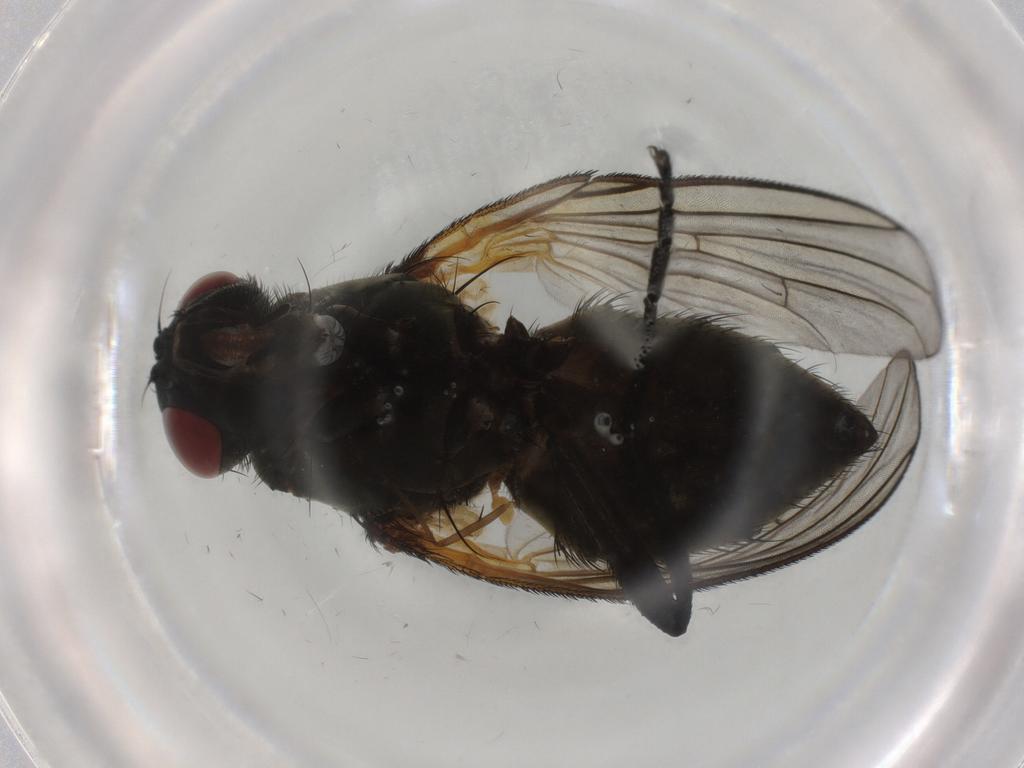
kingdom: Animalia
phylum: Arthropoda
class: Insecta
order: Diptera
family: Muscidae
